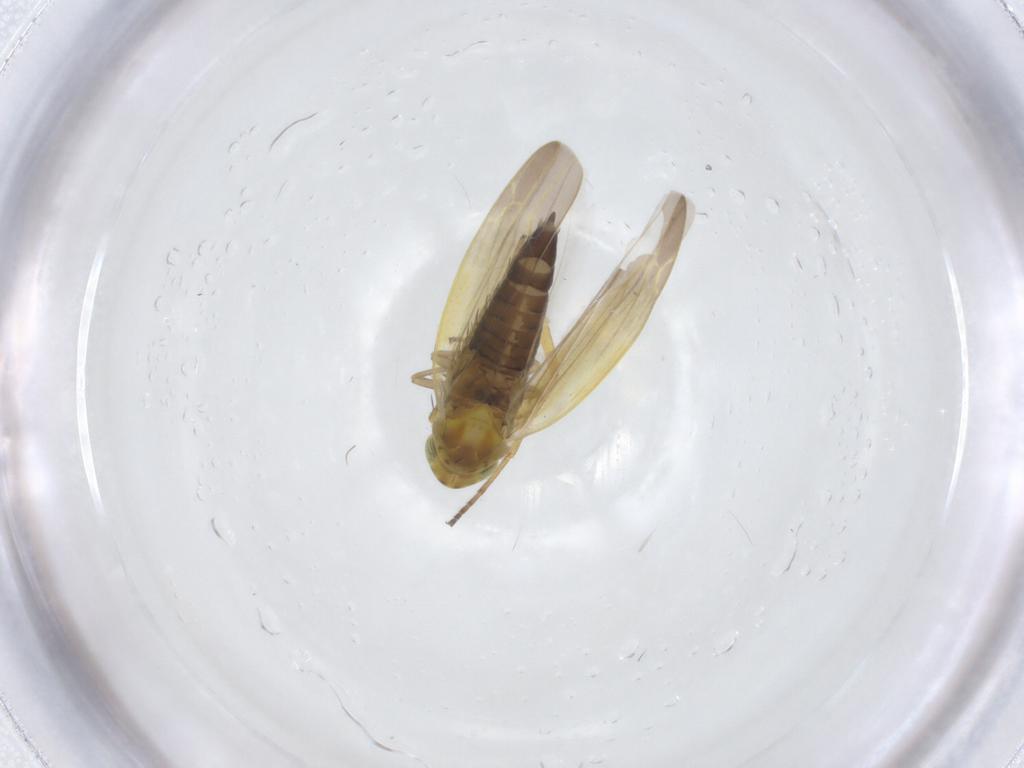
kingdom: Animalia
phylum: Arthropoda
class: Insecta
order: Hemiptera
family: Cicadellidae
